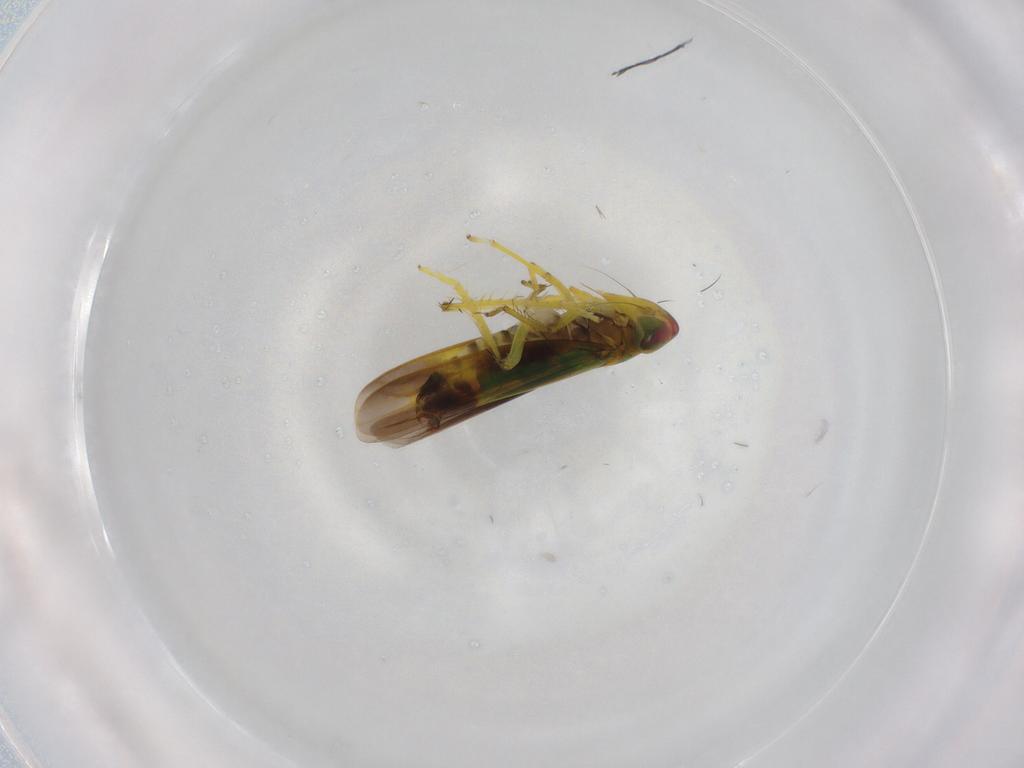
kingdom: Animalia
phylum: Arthropoda
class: Insecta
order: Hemiptera
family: Cicadellidae
